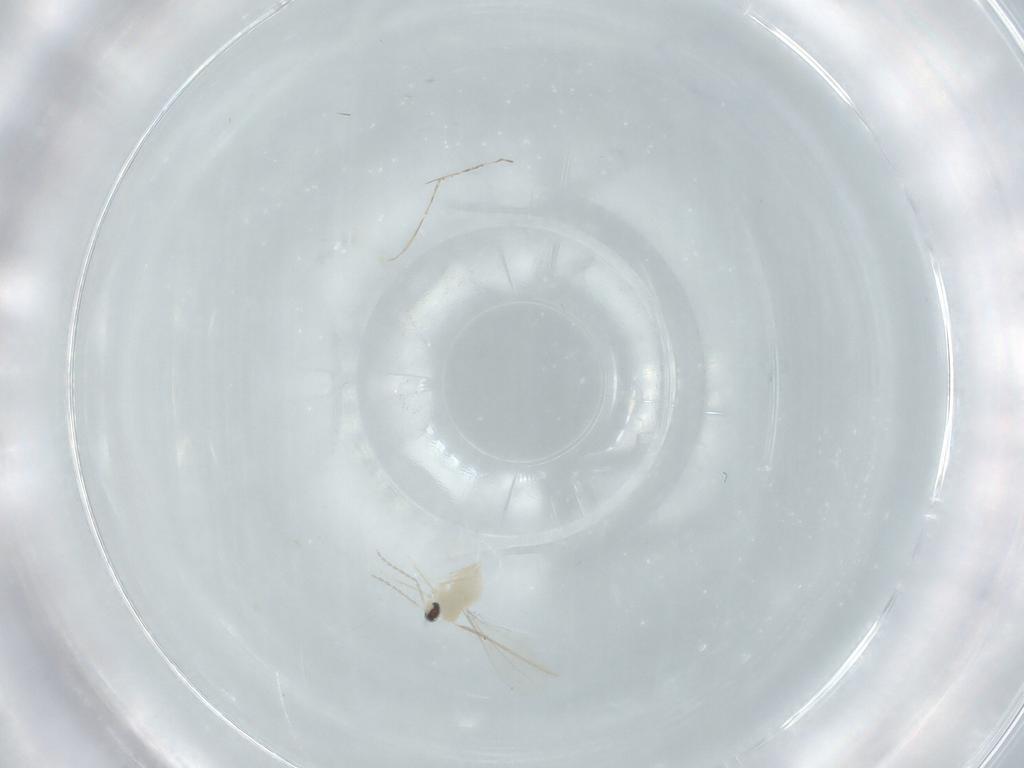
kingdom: Animalia
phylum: Arthropoda
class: Insecta
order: Diptera
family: Cecidomyiidae
